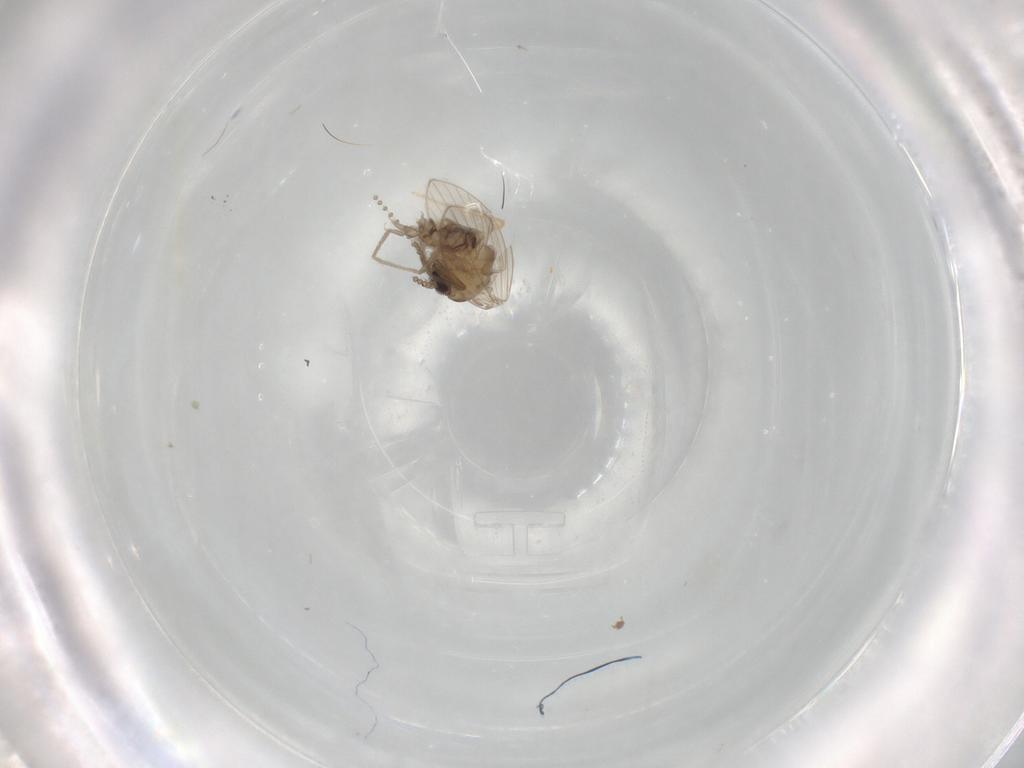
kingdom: Animalia
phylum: Arthropoda
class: Insecta
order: Diptera
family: Psychodidae
